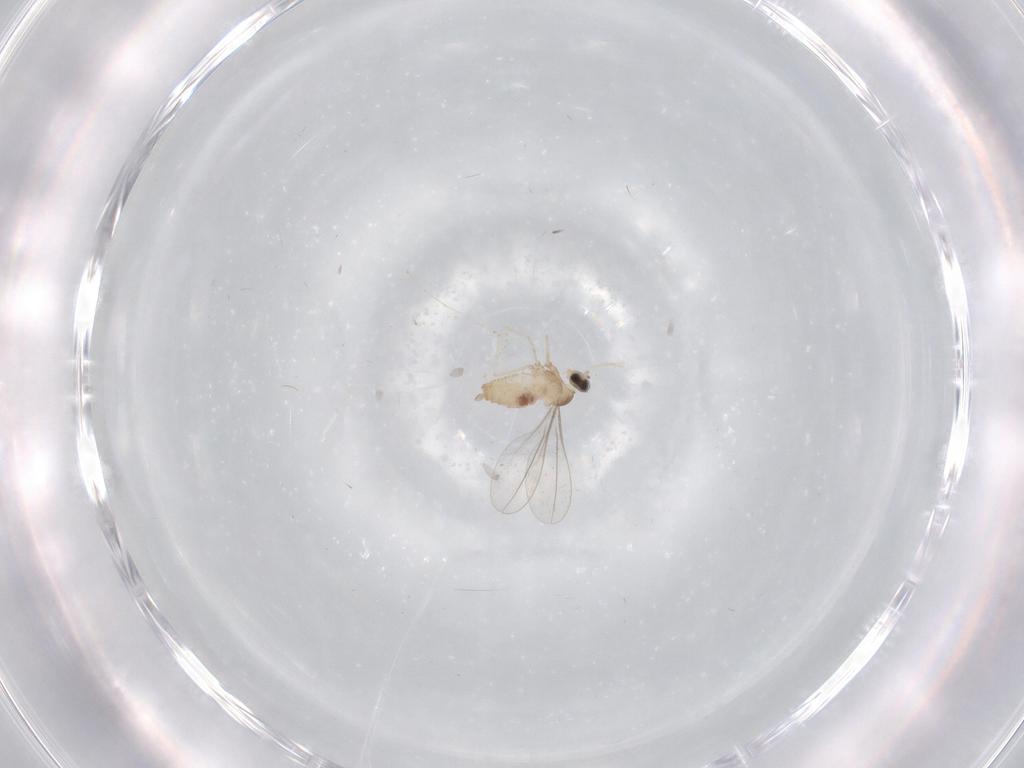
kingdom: Animalia
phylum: Arthropoda
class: Insecta
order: Diptera
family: Cecidomyiidae
